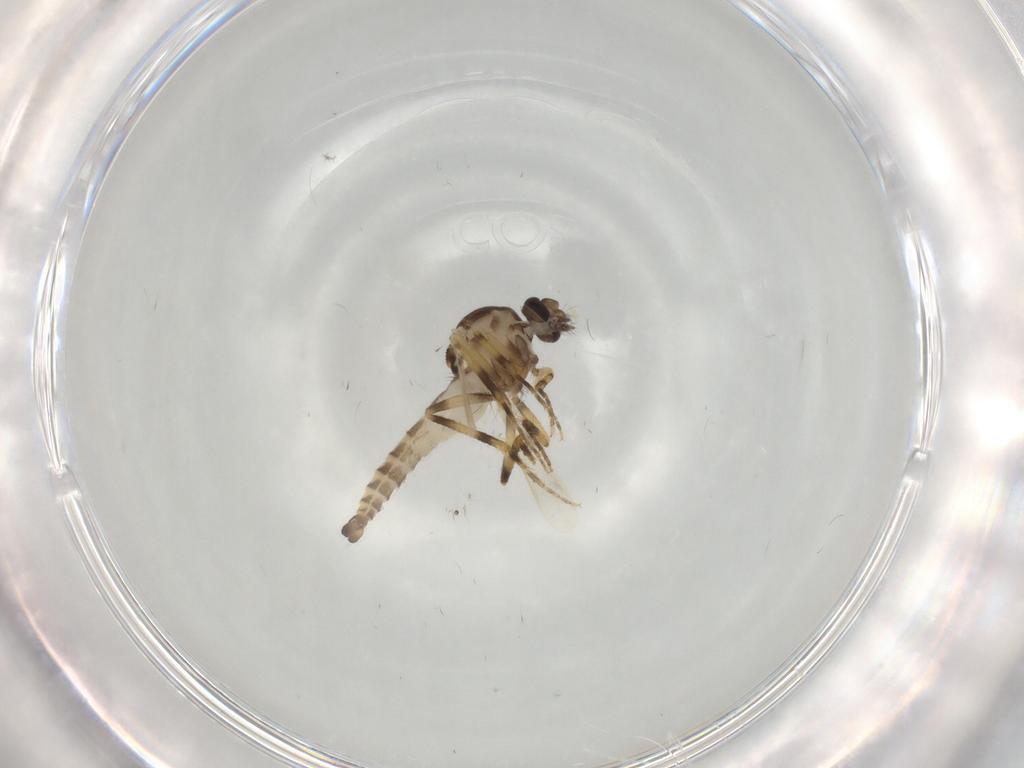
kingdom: Animalia
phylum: Arthropoda
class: Insecta
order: Diptera
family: Ceratopogonidae
